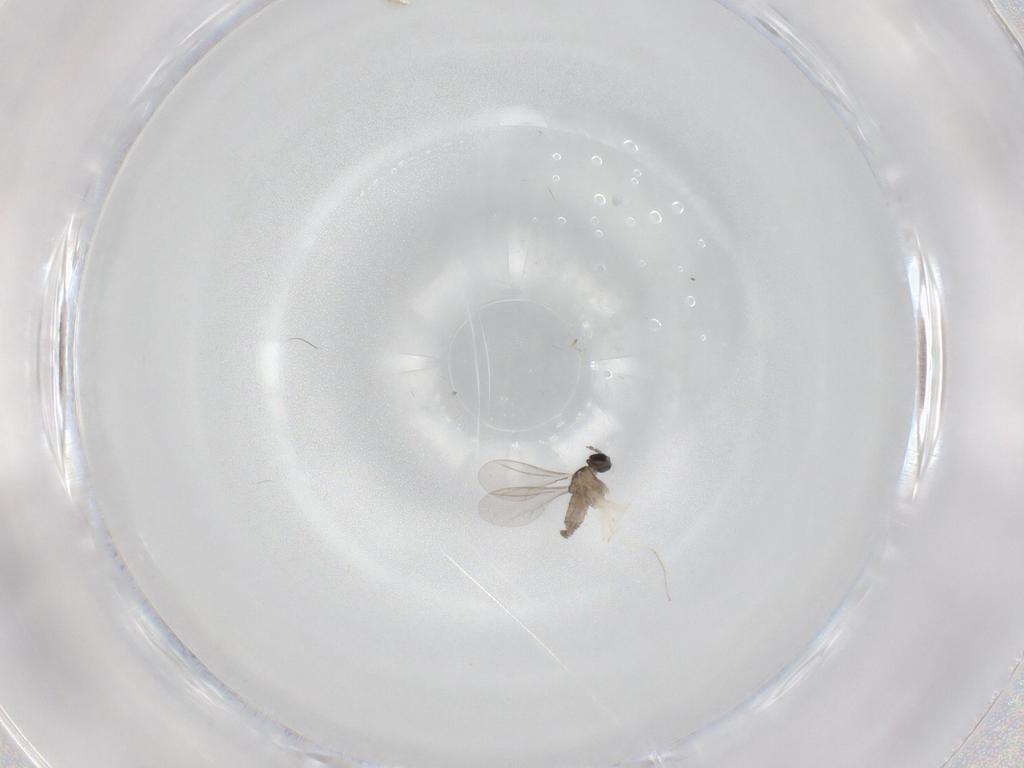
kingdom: Animalia
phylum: Arthropoda
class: Insecta
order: Diptera
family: Cecidomyiidae
